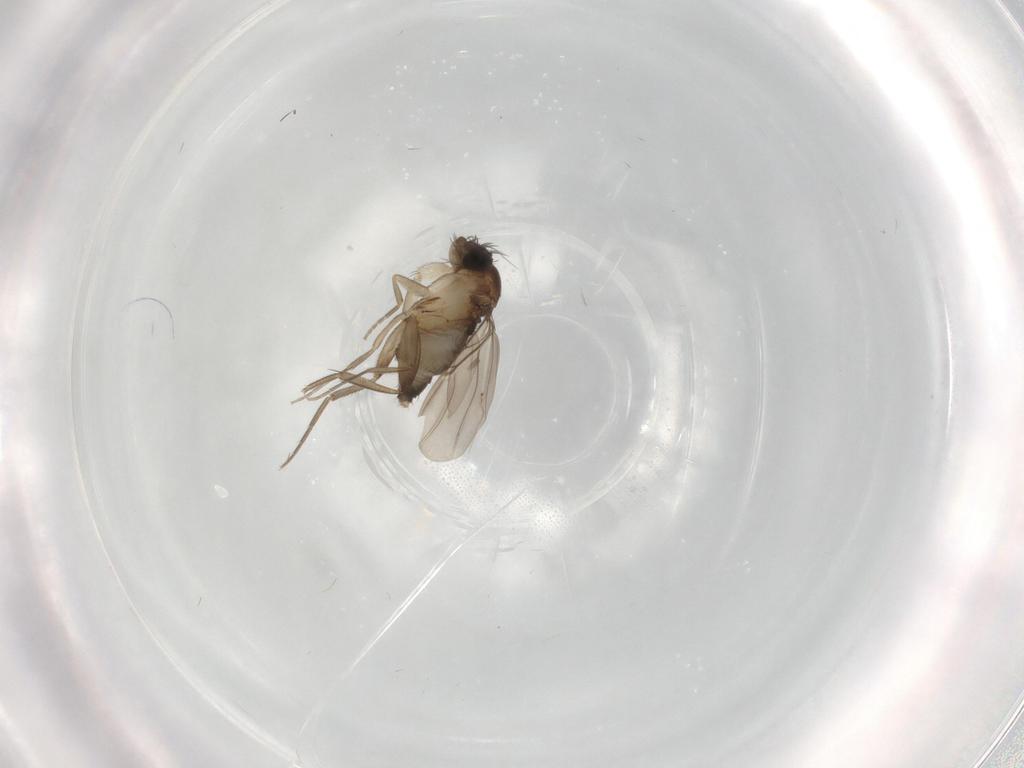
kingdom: Animalia
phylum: Arthropoda
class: Insecta
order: Diptera
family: Phoridae
